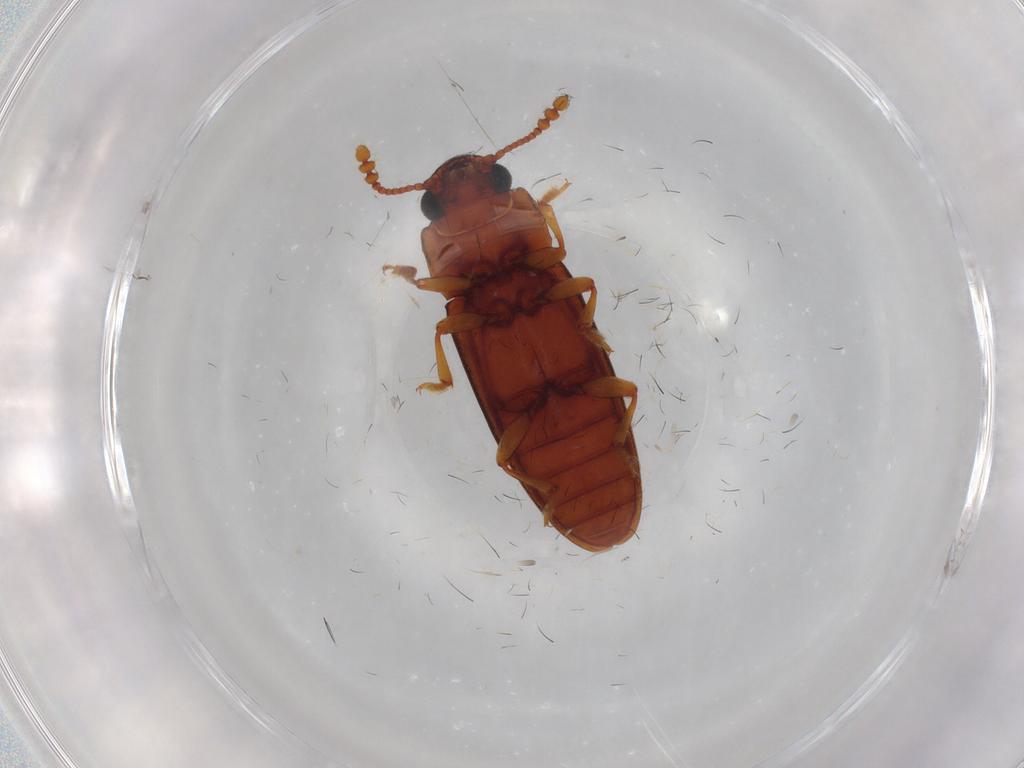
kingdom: Animalia
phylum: Arthropoda
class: Insecta
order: Coleoptera
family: Erotylidae
